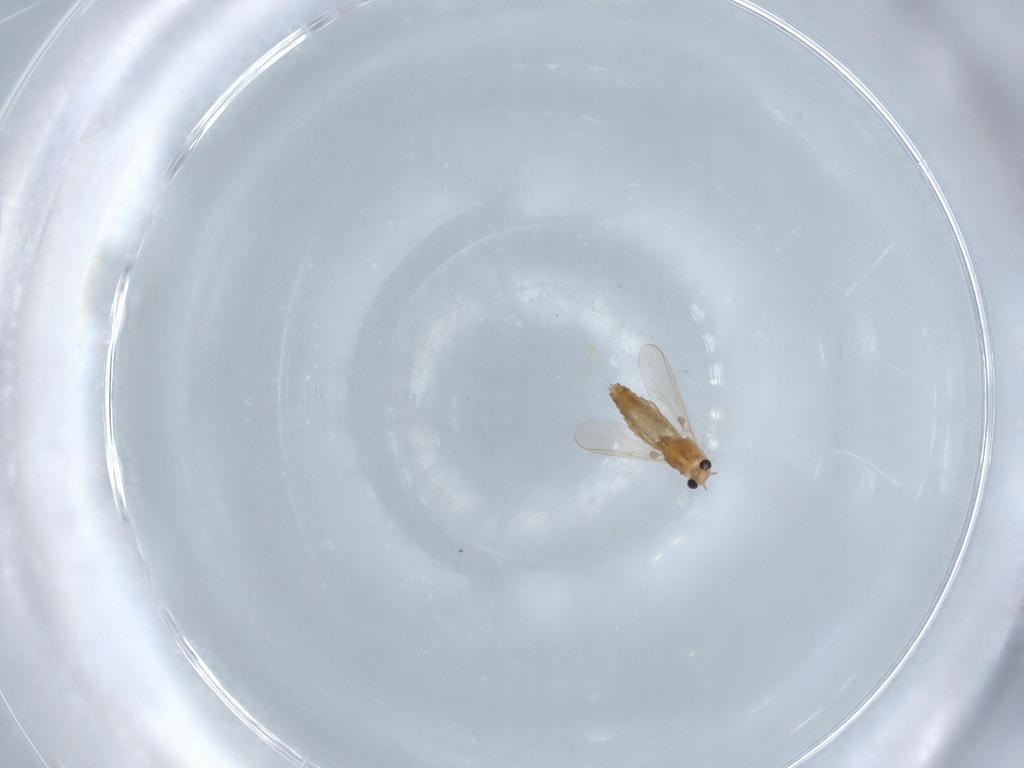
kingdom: Animalia
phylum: Arthropoda
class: Insecta
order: Diptera
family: Chironomidae
